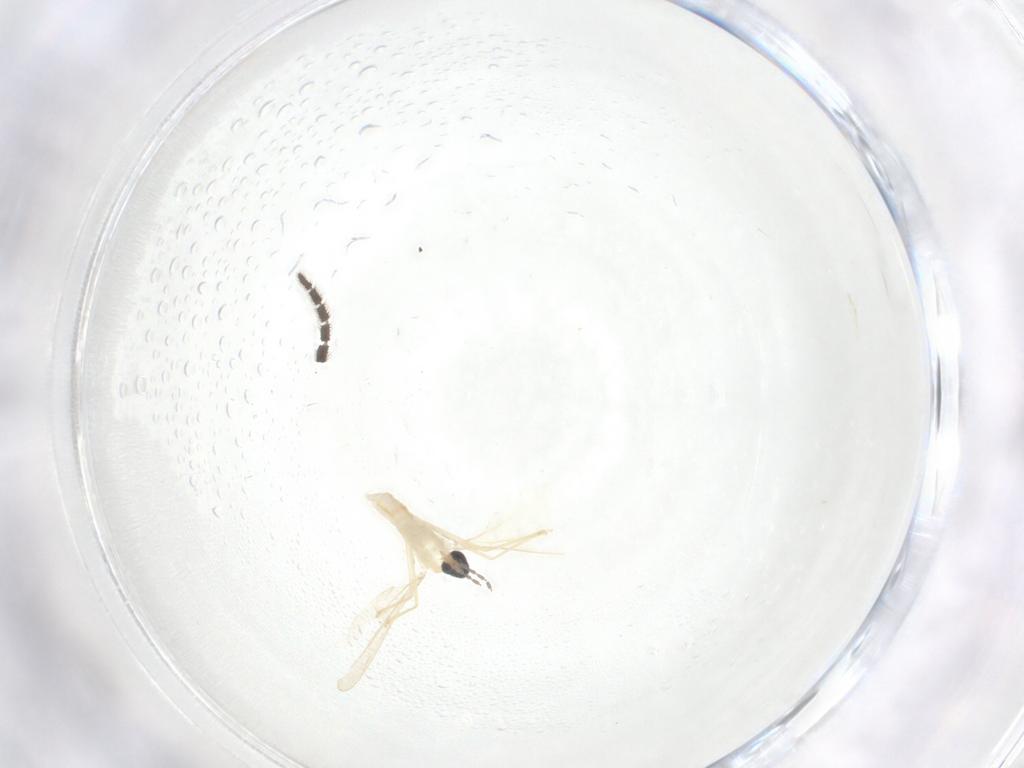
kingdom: Animalia
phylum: Arthropoda
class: Insecta
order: Diptera
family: Cecidomyiidae
